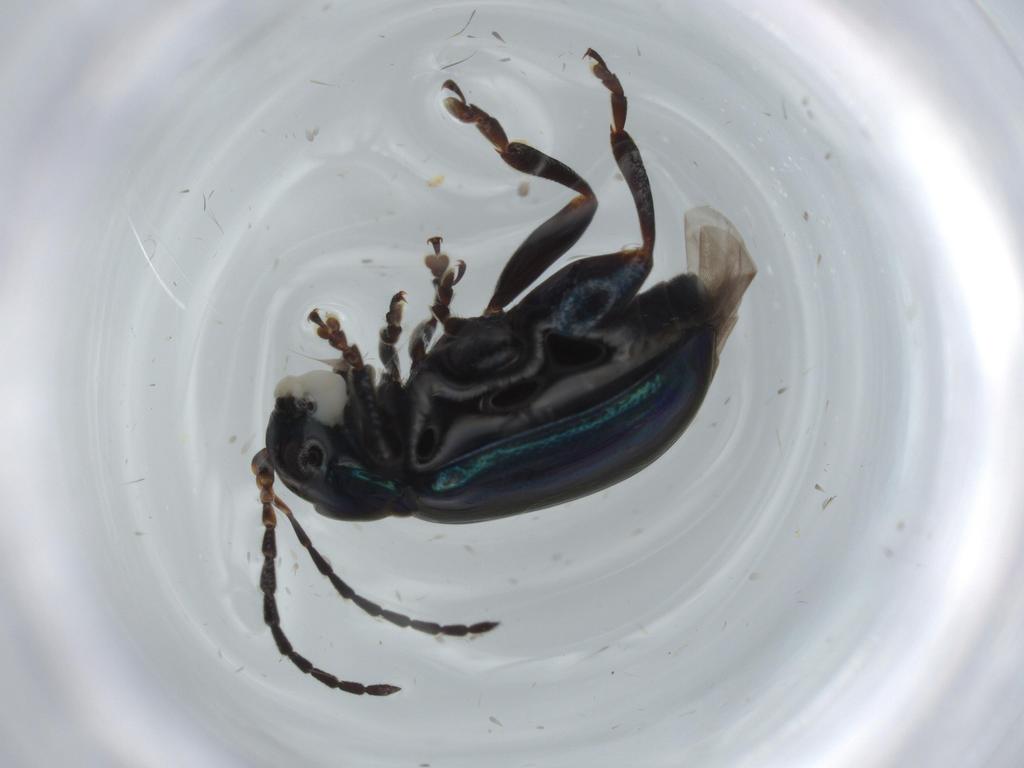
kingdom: Animalia
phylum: Arthropoda
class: Insecta
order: Coleoptera
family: Chrysomelidae
